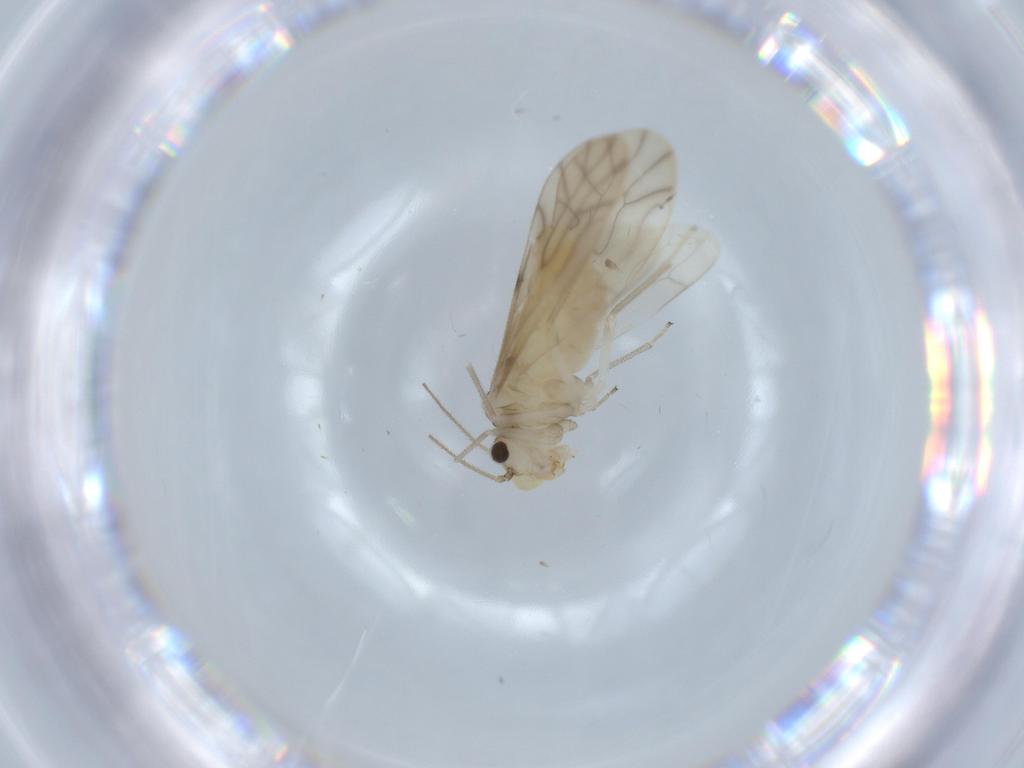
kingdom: Animalia
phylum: Arthropoda
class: Insecta
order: Psocodea
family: Caeciliusidae
